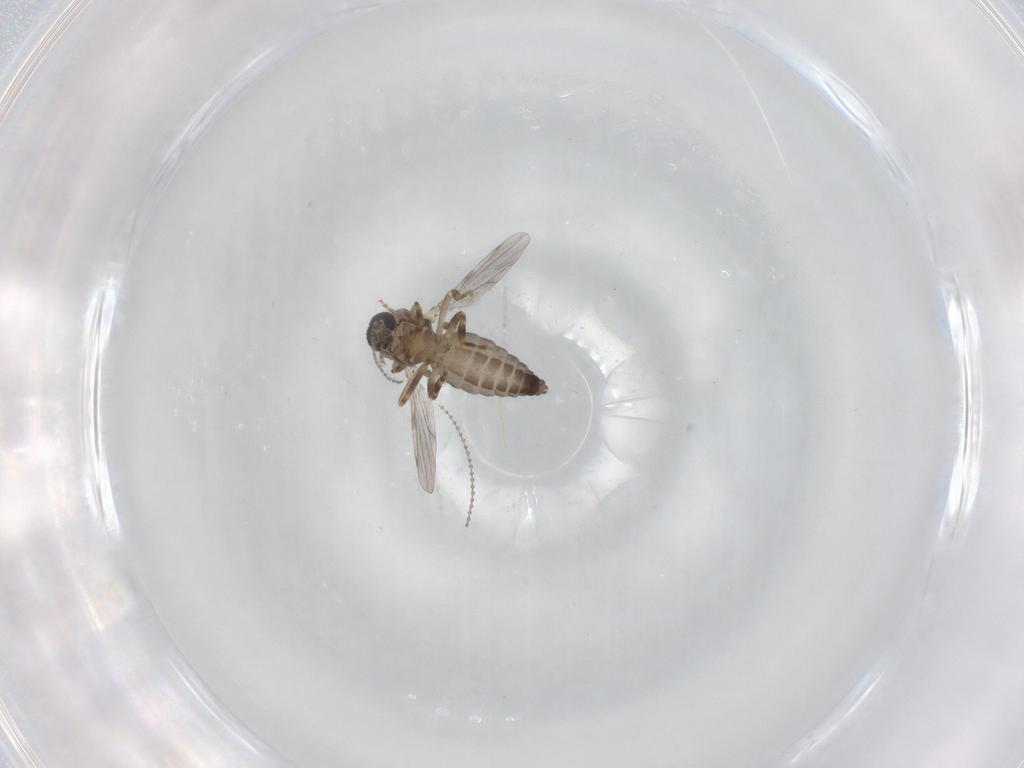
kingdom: Animalia
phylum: Arthropoda
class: Insecta
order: Diptera
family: Ceratopogonidae
